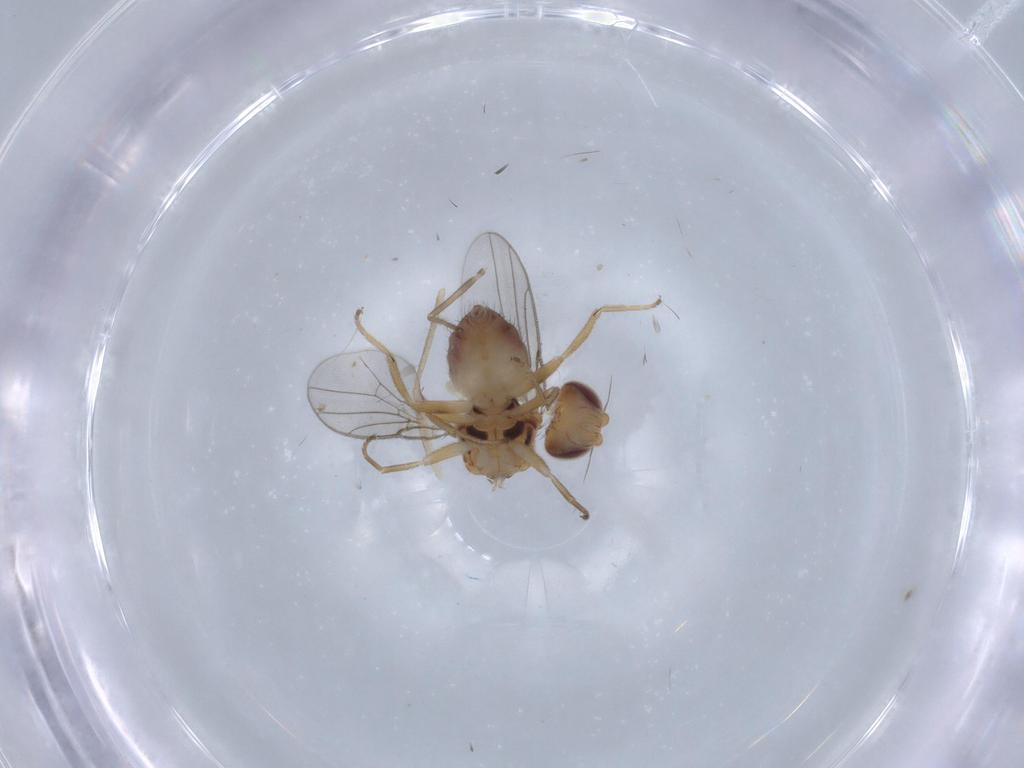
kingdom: Animalia
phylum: Arthropoda
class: Insecta
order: Diptera
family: Chloropidae
